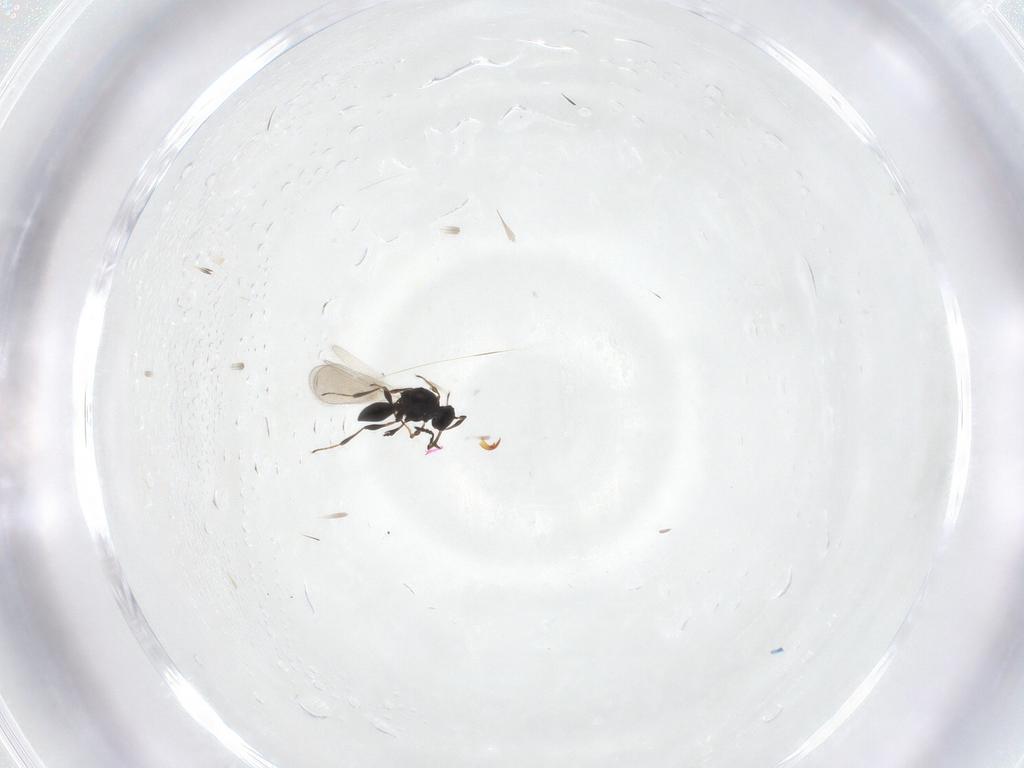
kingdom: Animalia
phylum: Arthropoda
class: Insecta
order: Hymenoptera
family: Platygastridae
